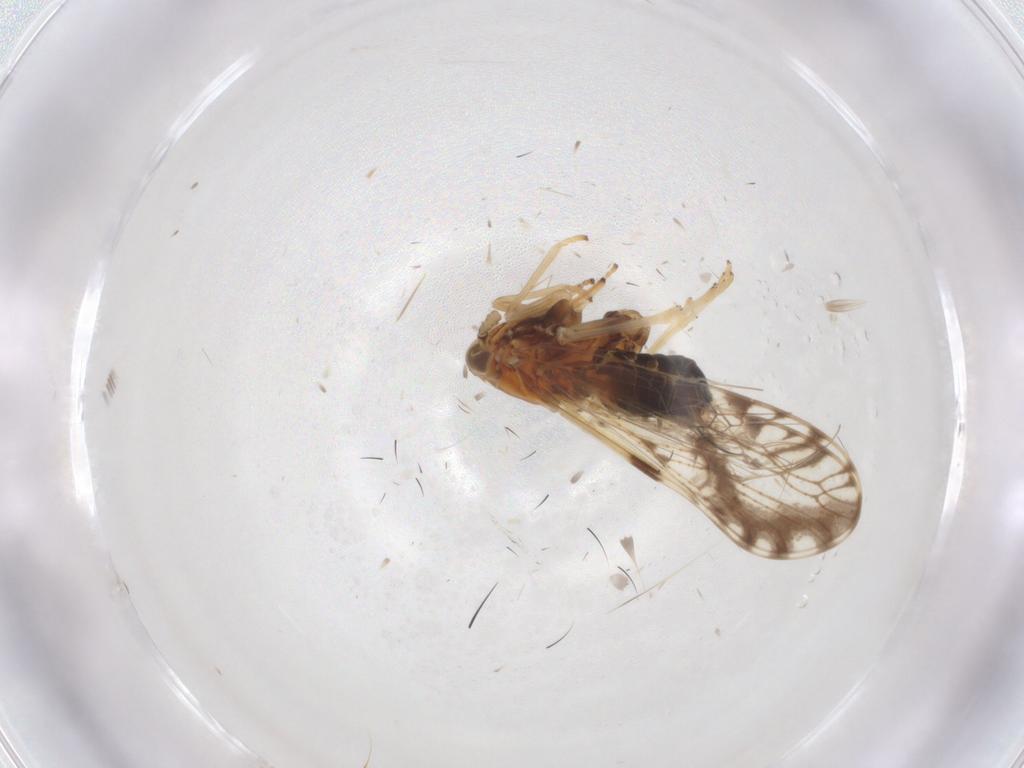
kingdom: Animalia
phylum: Arthropoda
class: Insecta
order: Hemiptera
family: Delphacidae
